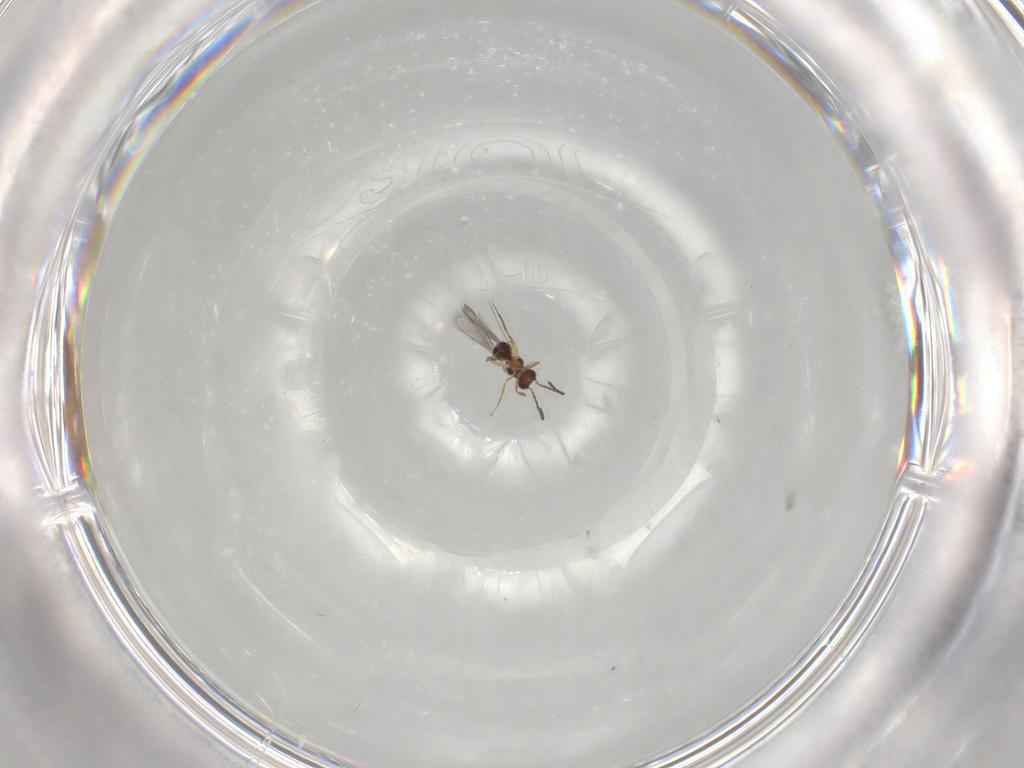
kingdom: Animalia
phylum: Arthropoda
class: Insecta
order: Hymenoptera
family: Mymaridae
